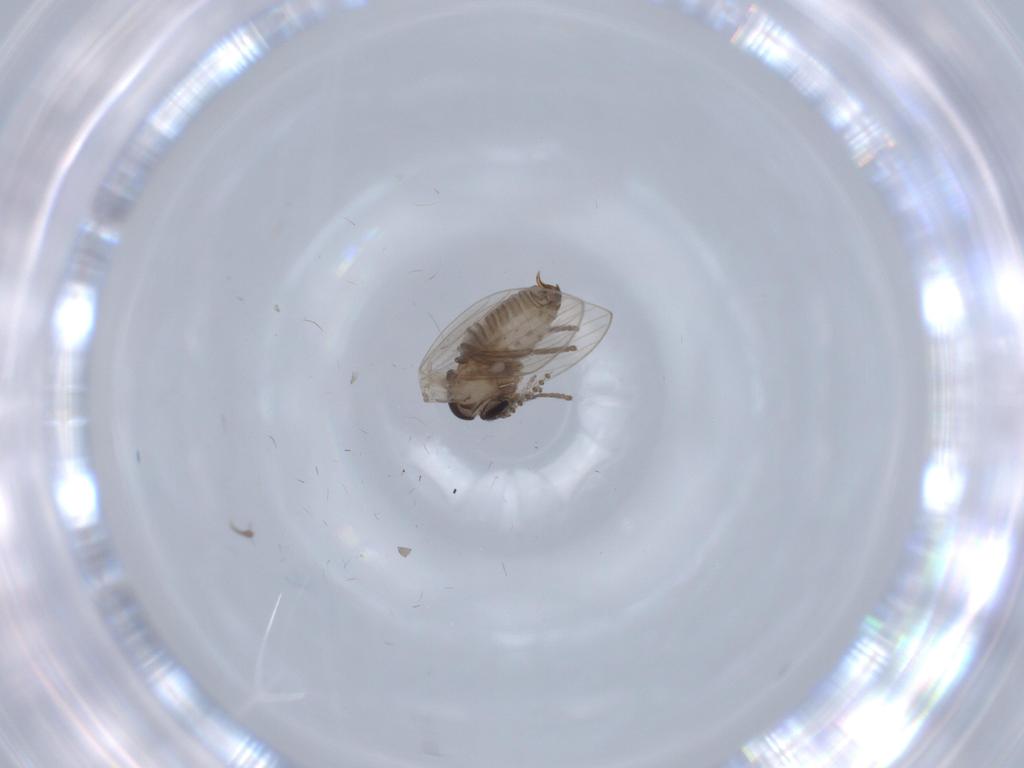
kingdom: Animalia
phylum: Arthropoda
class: Insecta
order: Diptera
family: Psychodidae
